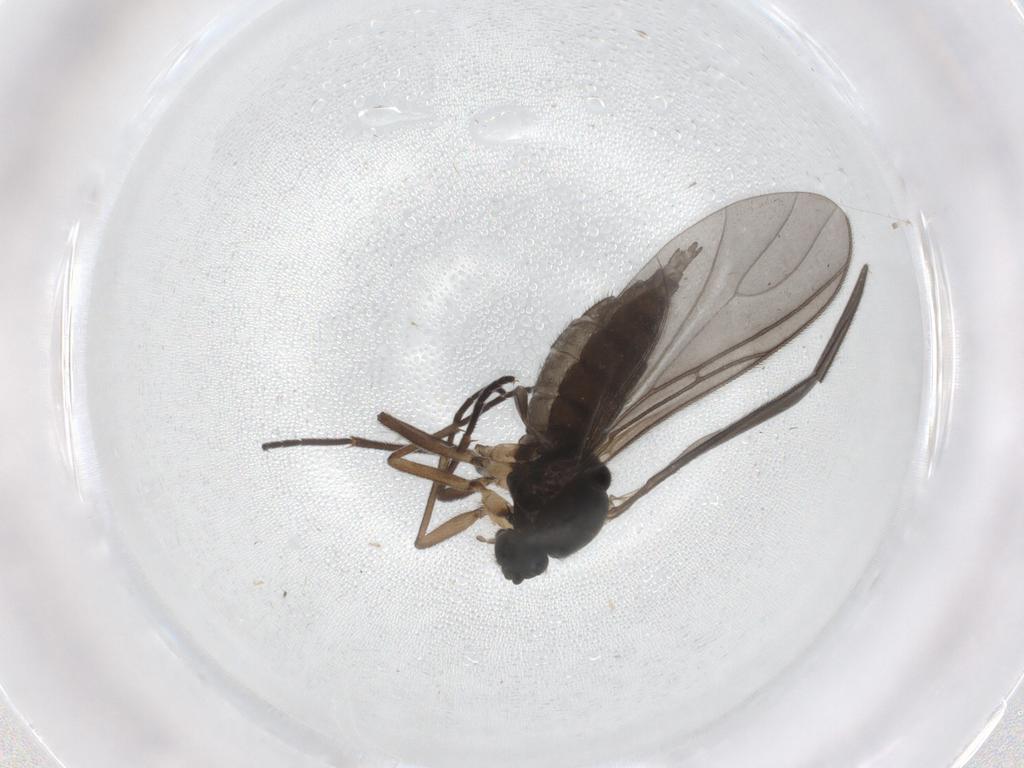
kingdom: Animalia
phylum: Arthropoda
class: Insecta
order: Diptera
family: Sciaridae
